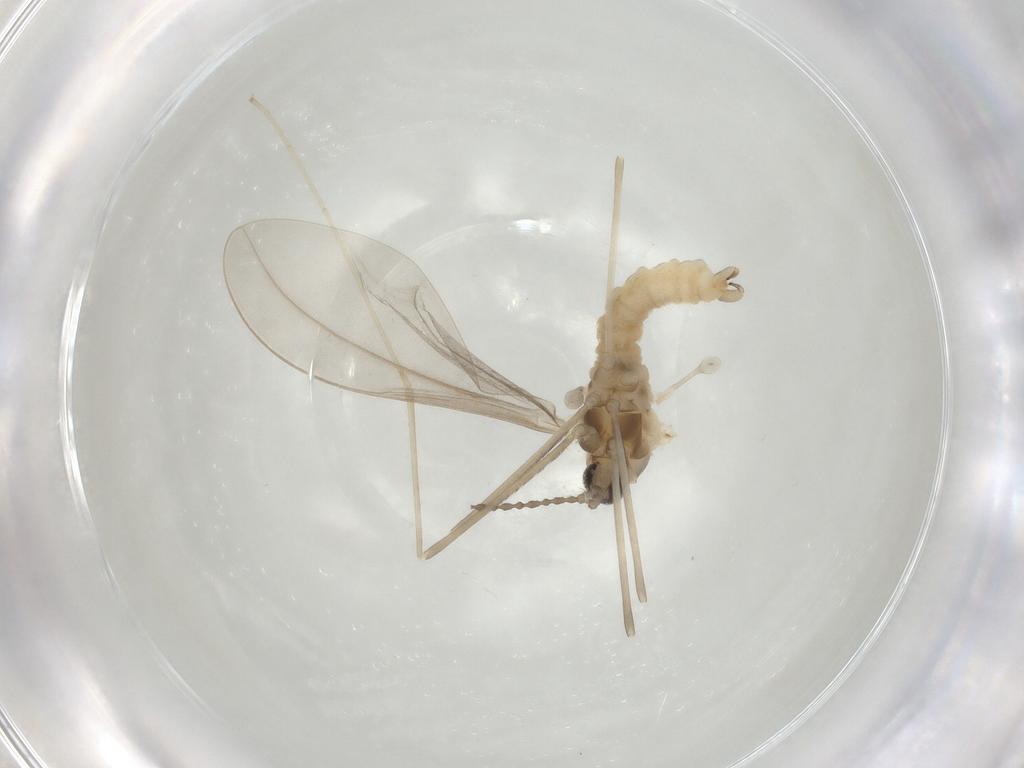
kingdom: Animalia
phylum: Arthropoda
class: Insecta
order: Diptera
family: Cecidomyiidae
